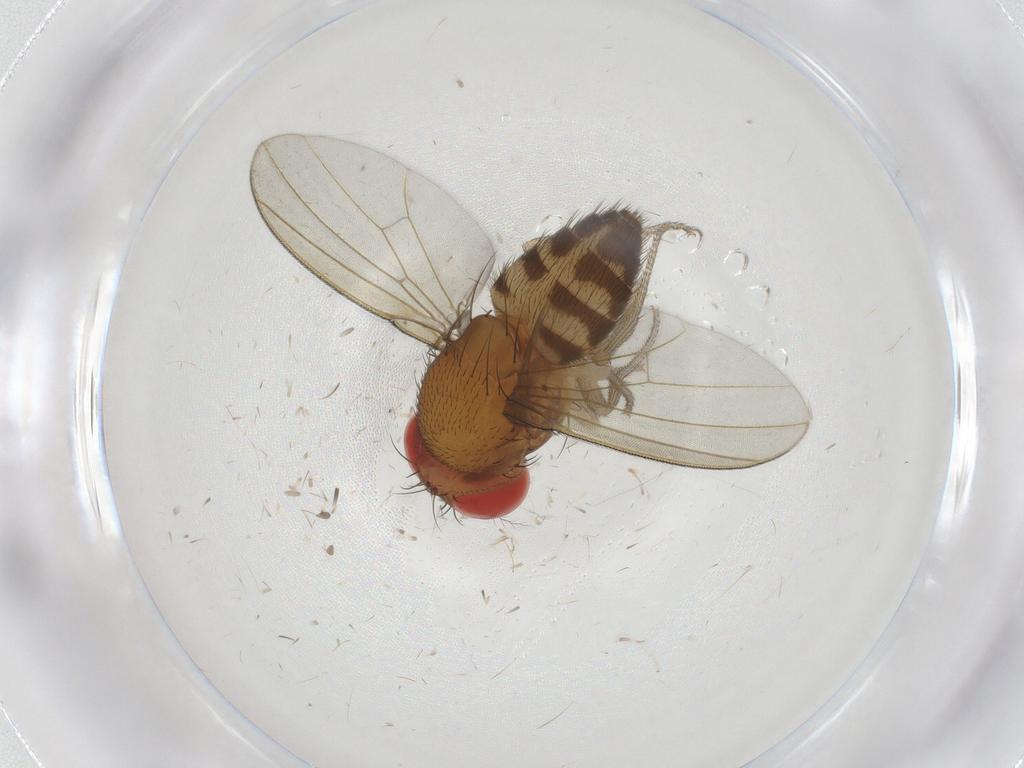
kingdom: Animalia
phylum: Arthropoda
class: Insecta
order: Diptera
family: Drosophilidae
